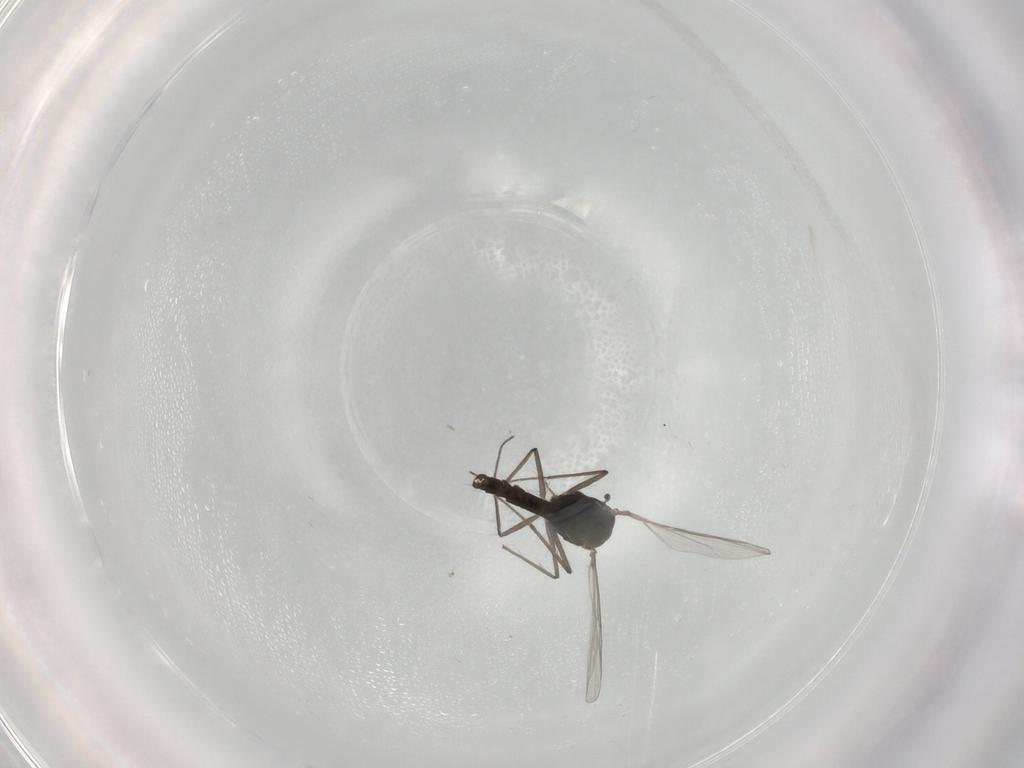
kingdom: Animalia
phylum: Arthropoda
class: Insecta
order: Diptera
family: Chironomidae
